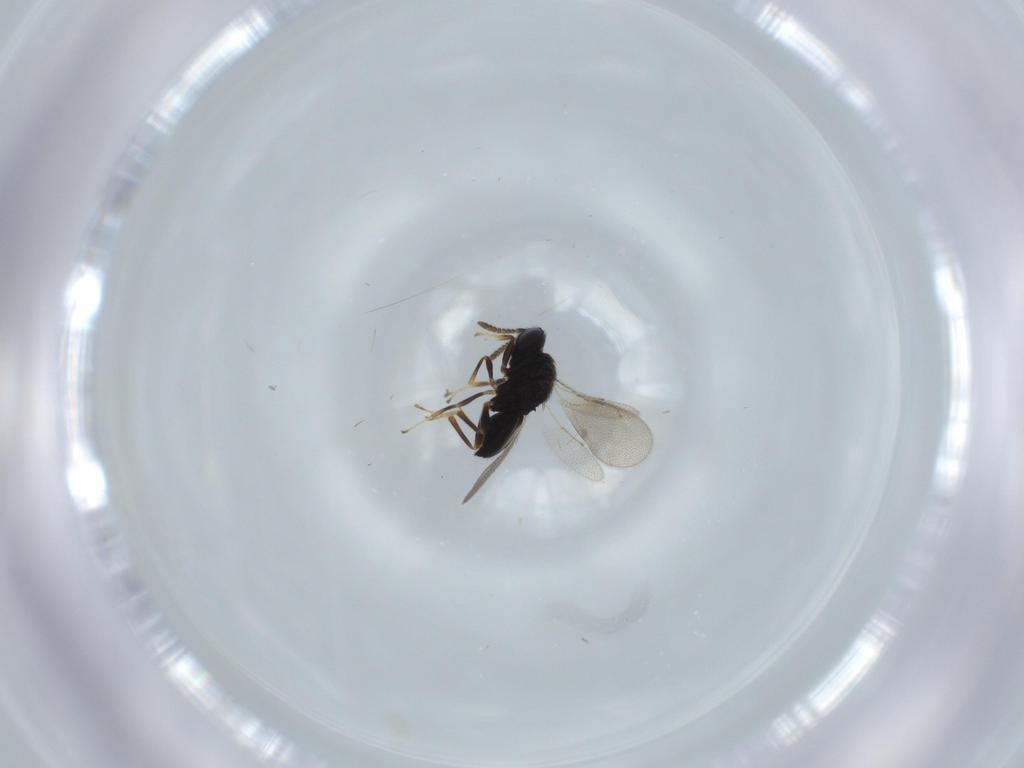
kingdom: Animalia
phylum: Arthropoda
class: Insecta
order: Hymenoptera
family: Pteromalidae
